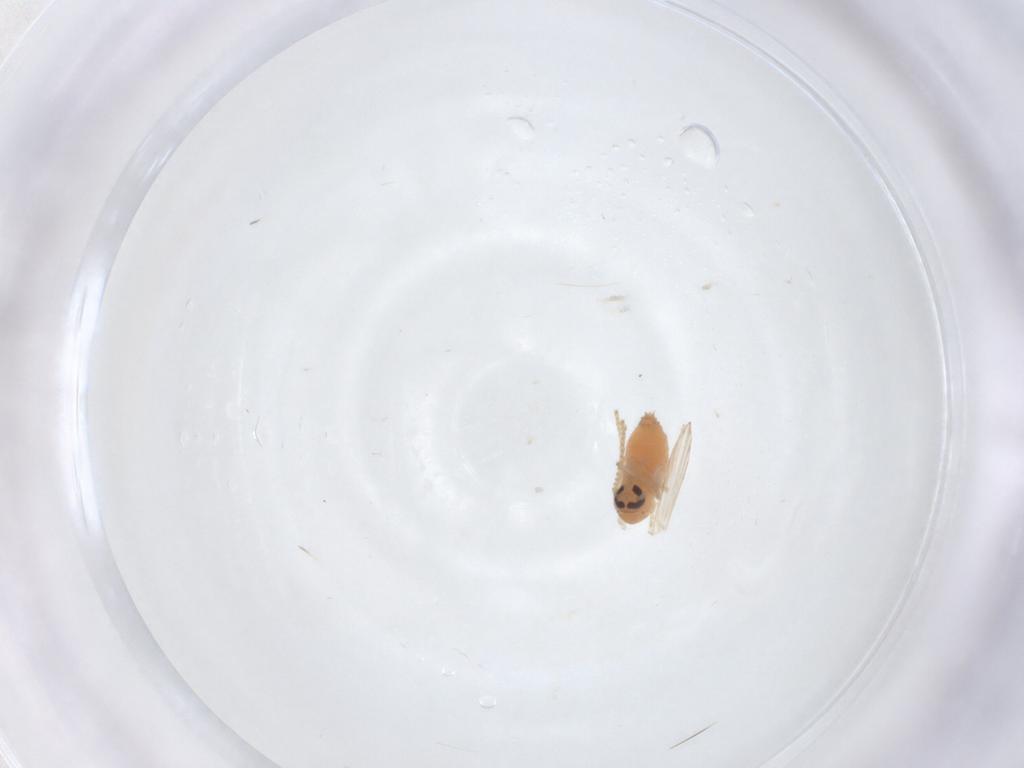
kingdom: Animalia
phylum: Arthropoda
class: Insecta
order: Diptera
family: Chironomidae
